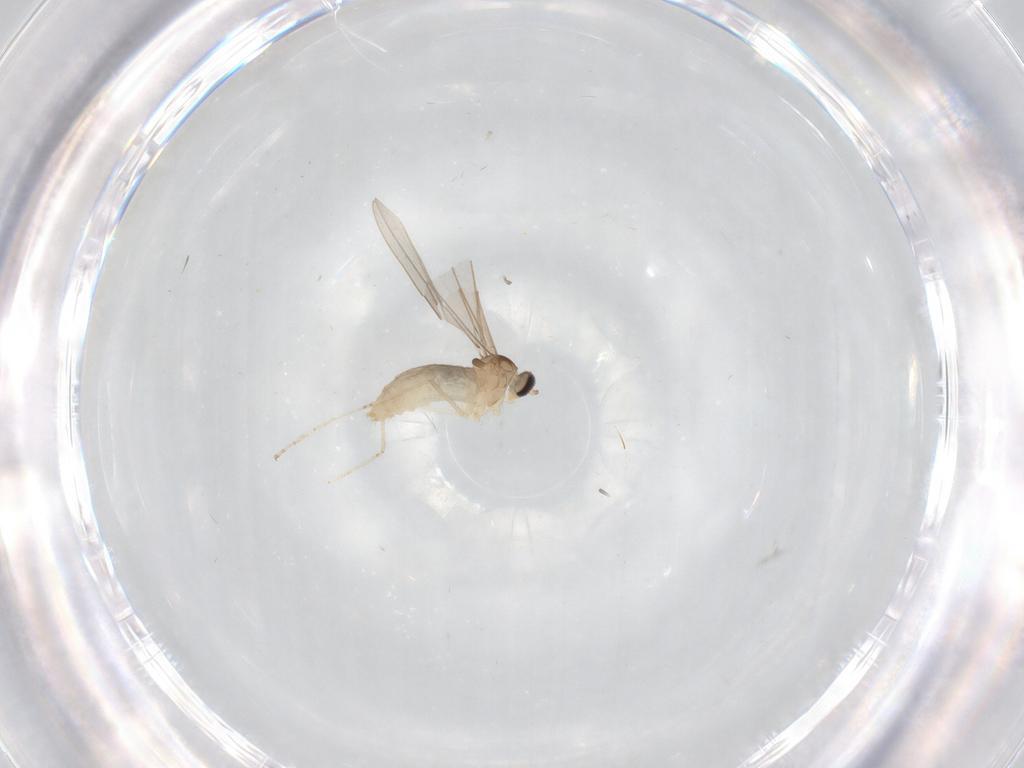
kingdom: Animalia
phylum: Arthropoda
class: Insecta
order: Diptera
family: Cecidomyiidae
